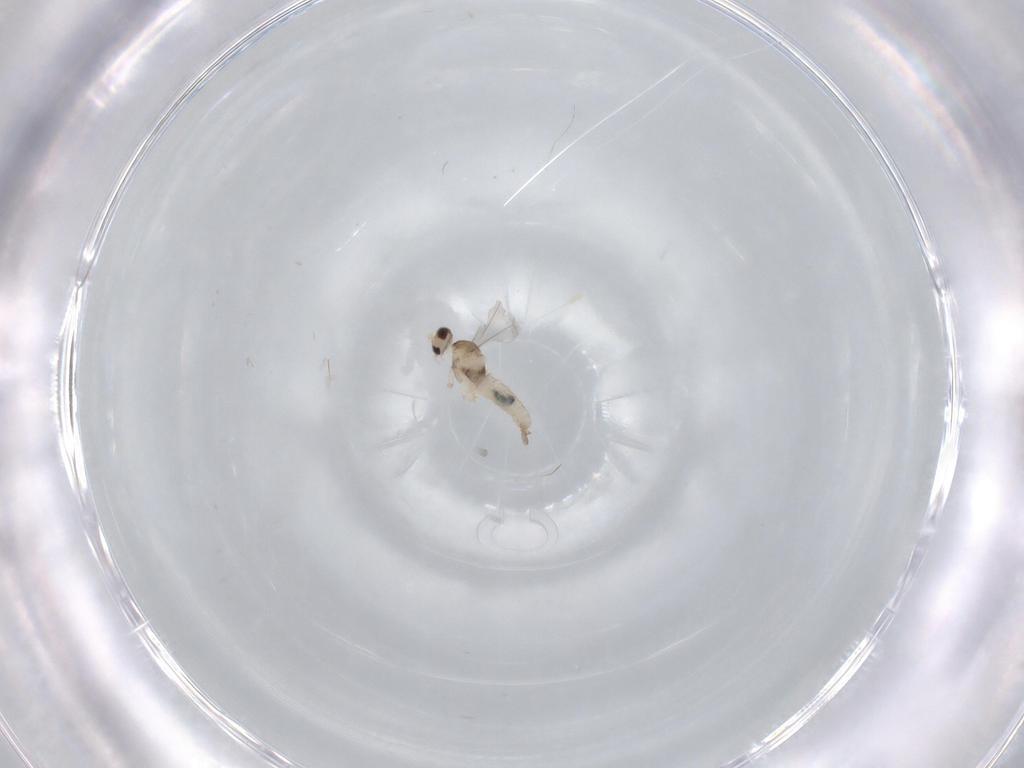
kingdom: Animalia
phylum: Arthropoda
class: Insecta
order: Diptera
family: Cecidomyiidae
